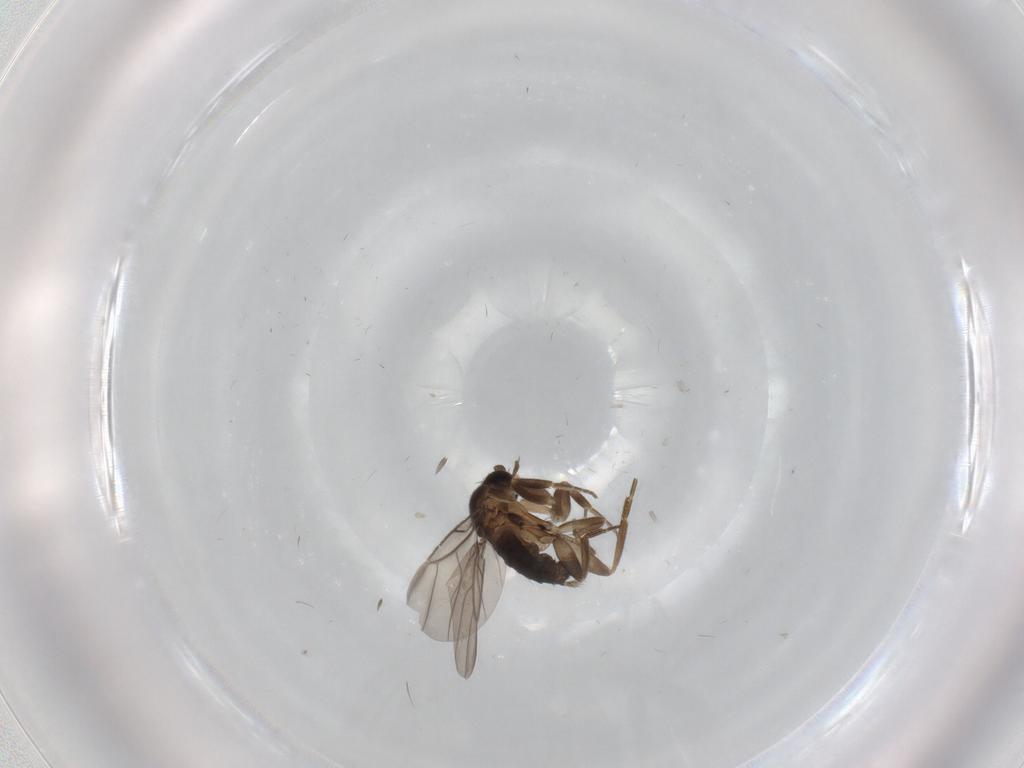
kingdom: Animalia
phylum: Arthropoda
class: Insecta
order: Diptera
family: Phoridae
